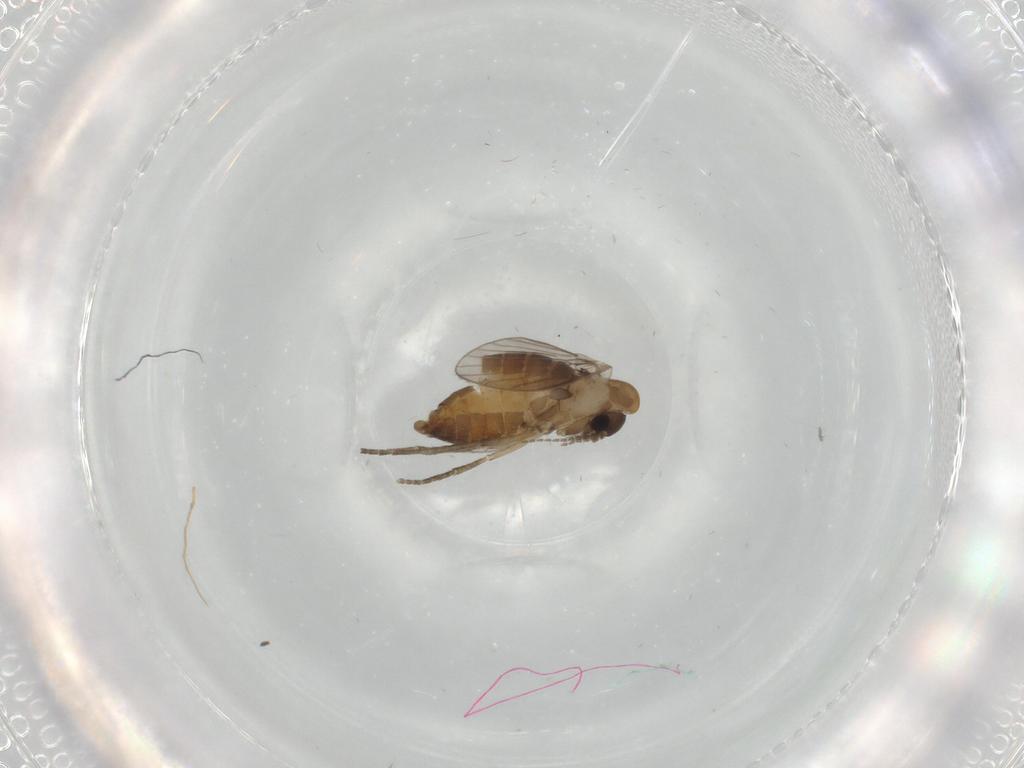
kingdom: Animalia
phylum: Arthropoda
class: Insecta
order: Diptera
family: Psychodidae
